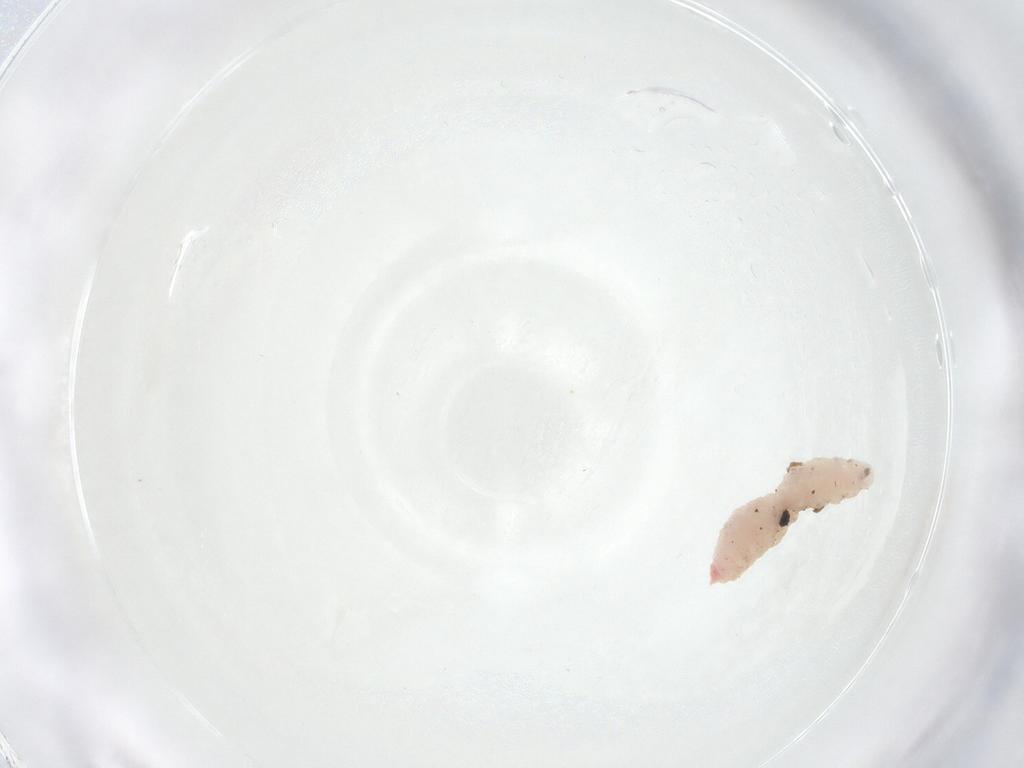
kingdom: Animalia
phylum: Arthropoda
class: Insecta
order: Diptera
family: Cecidomyiidae
